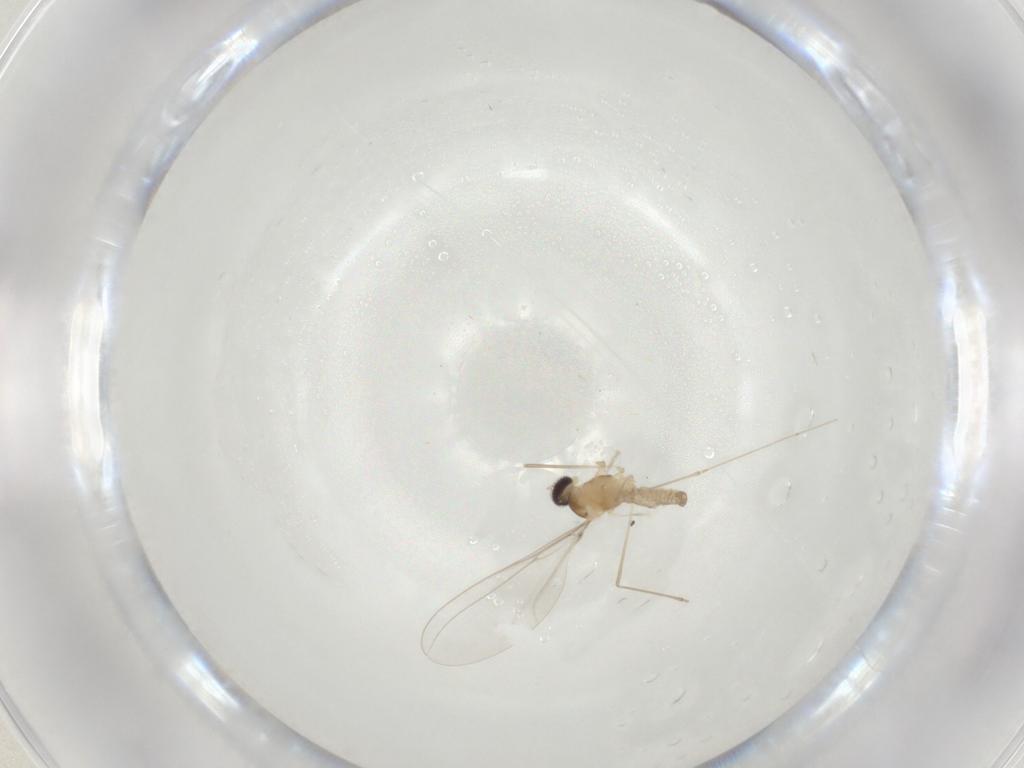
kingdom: Animalia
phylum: Arthropoda
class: Insecta
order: Diptera
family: Cecidomyiidae
